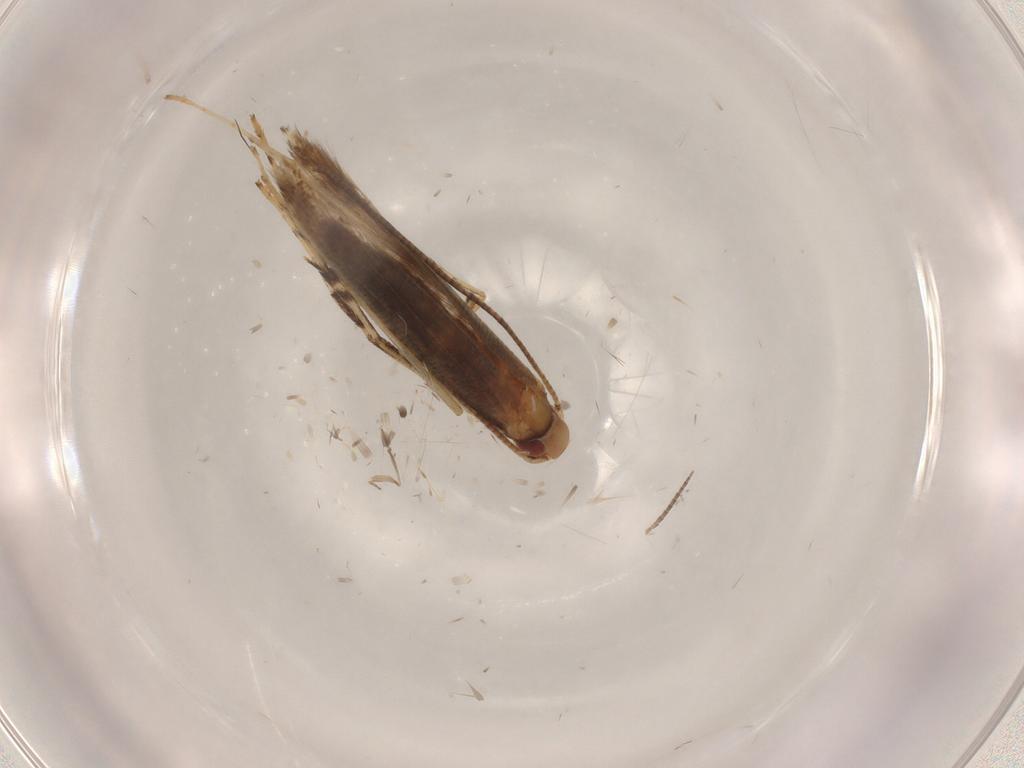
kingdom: Animalia
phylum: Arthropoda
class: Insecta
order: Lepidoptera
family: Gracillariidae
